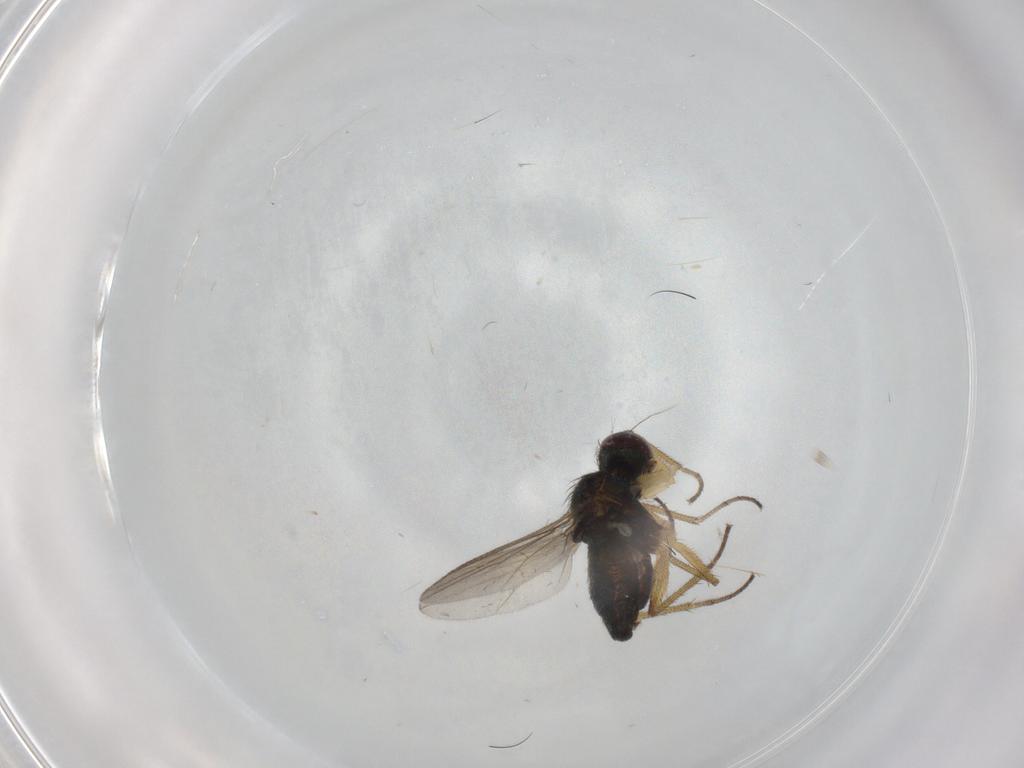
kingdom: Animalia
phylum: Arthropoda
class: Insecta
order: Diptera
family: Dolichopodidae
